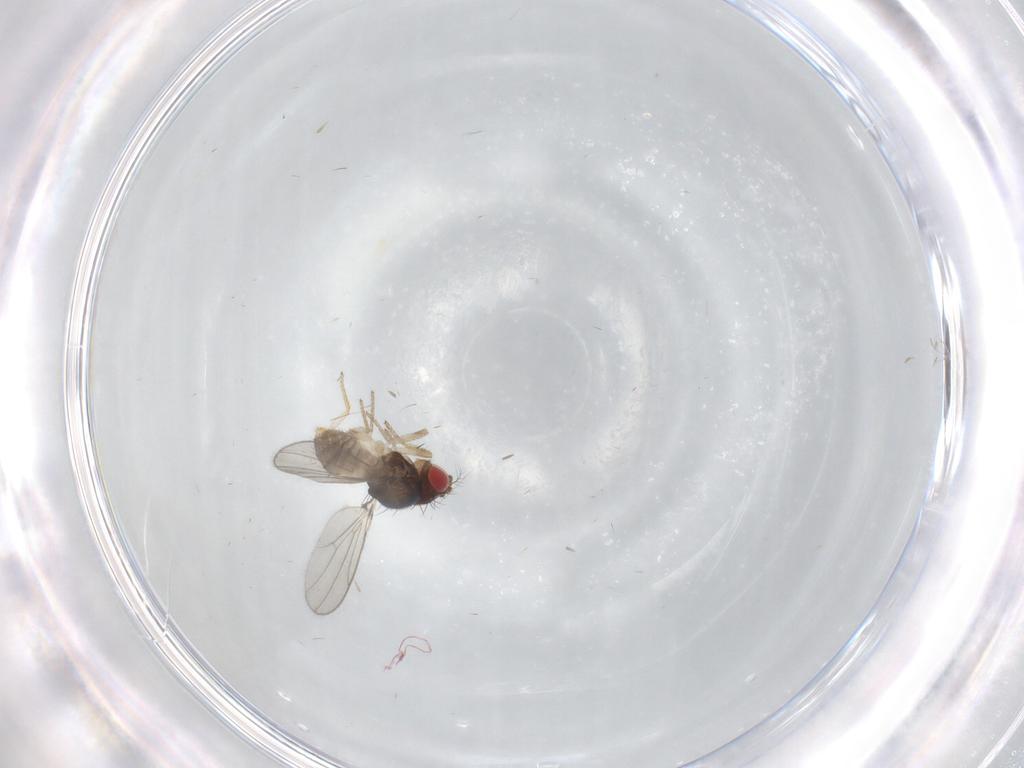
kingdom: Animalia
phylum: Arthropoda
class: Insecta
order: Diptera
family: Drosophilidae
